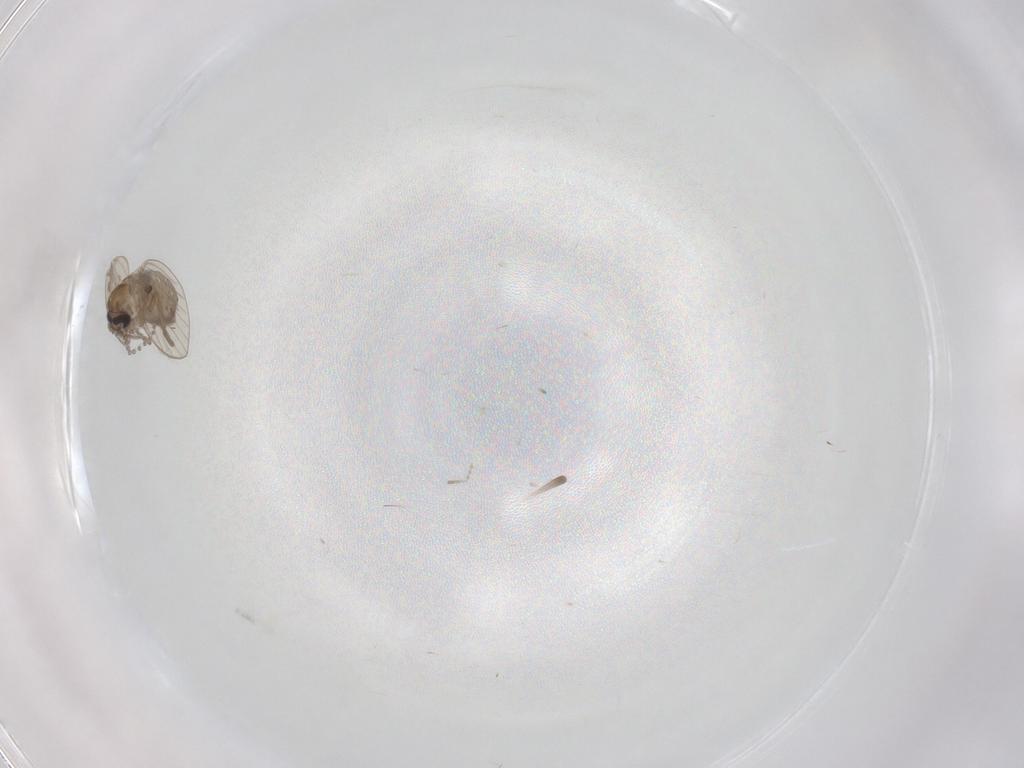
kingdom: Animalia
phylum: Arthropoda
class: Insecta
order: Diptera
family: Psychodidae
